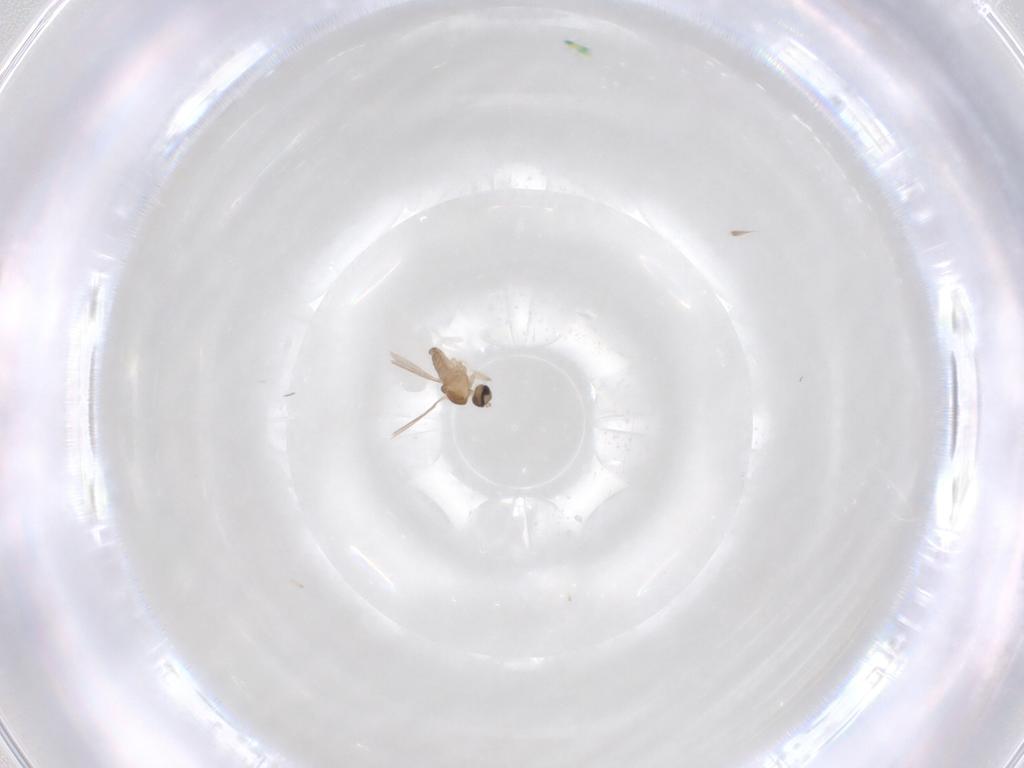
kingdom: Animalia
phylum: Arthropoda
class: Insecta
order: Diptera
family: Cecidomyiidae
